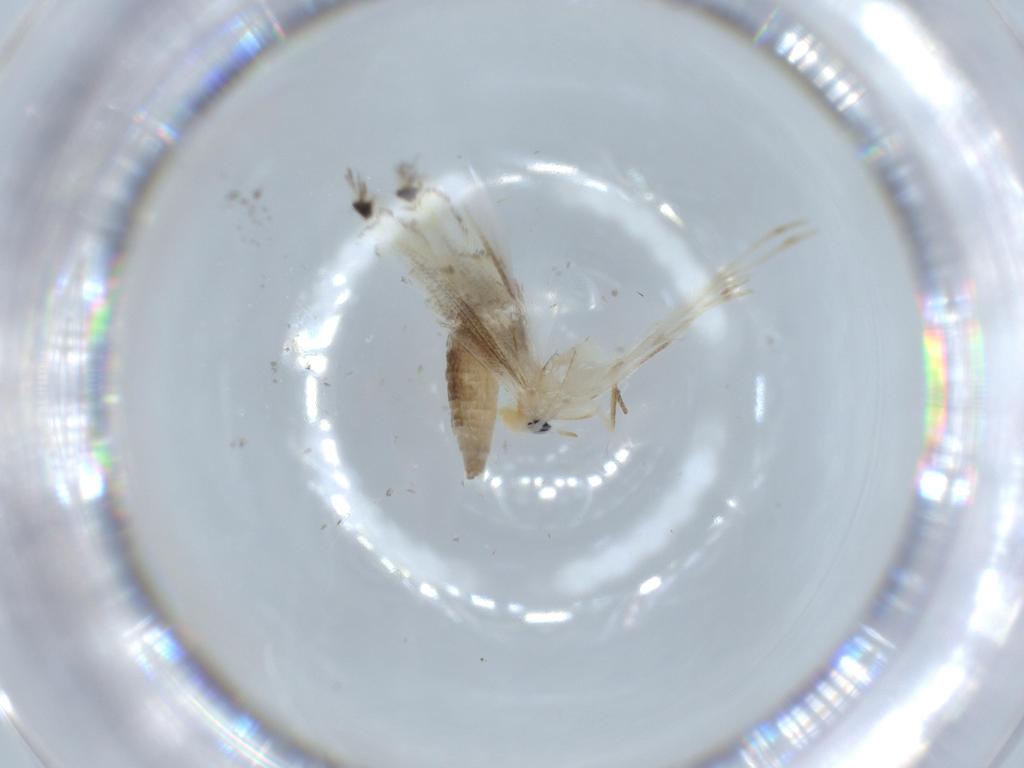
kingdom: Animalia
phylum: Arthropoda
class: Insecta
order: Lepidoptera
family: Gracillariidae
